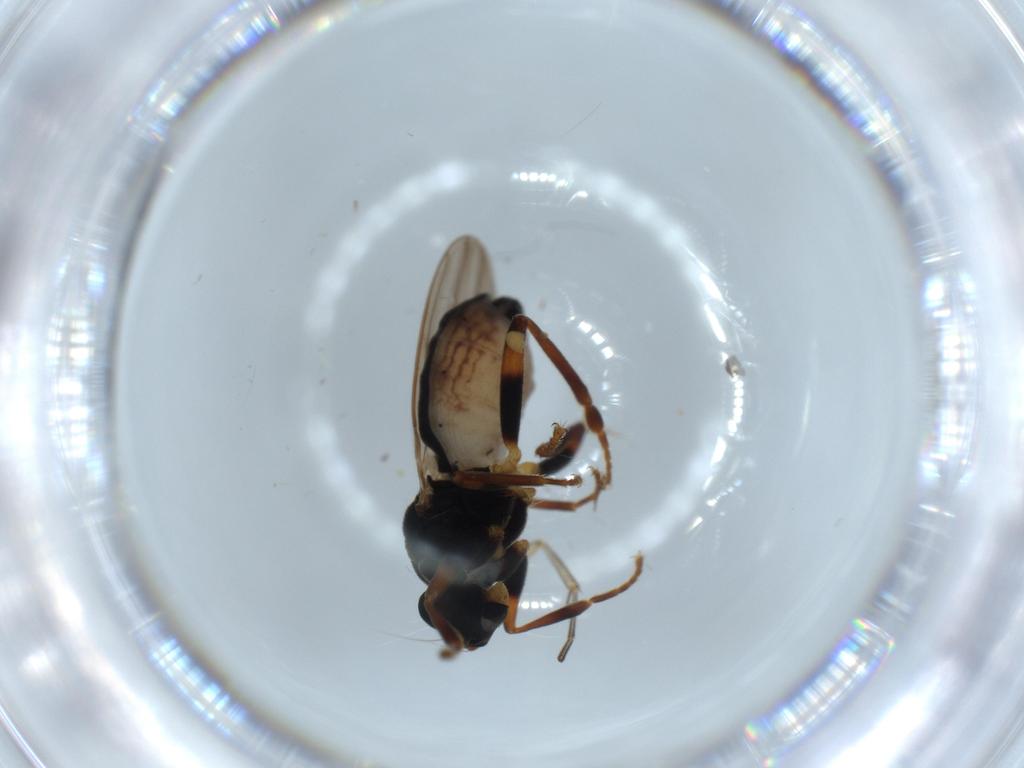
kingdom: Animalia
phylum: Arthropoda
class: Insecta
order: Diptera
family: Sphaeroceridae
